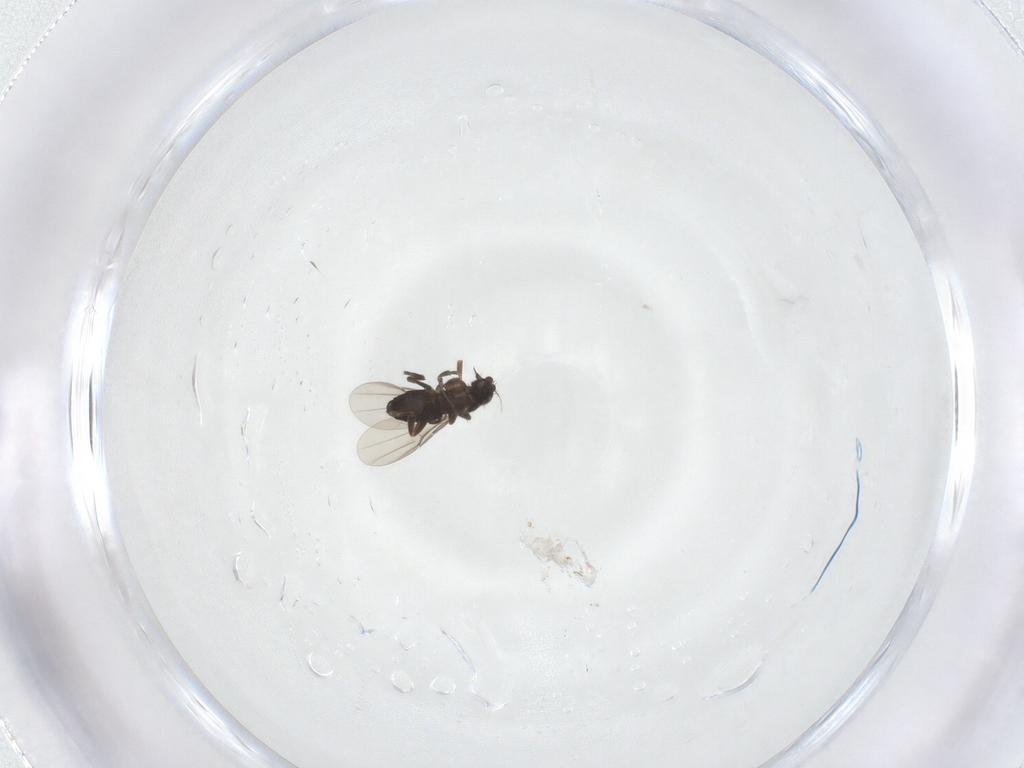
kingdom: Animalia
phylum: Arthropoda
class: Insecta
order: Diptera
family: Phoridae
